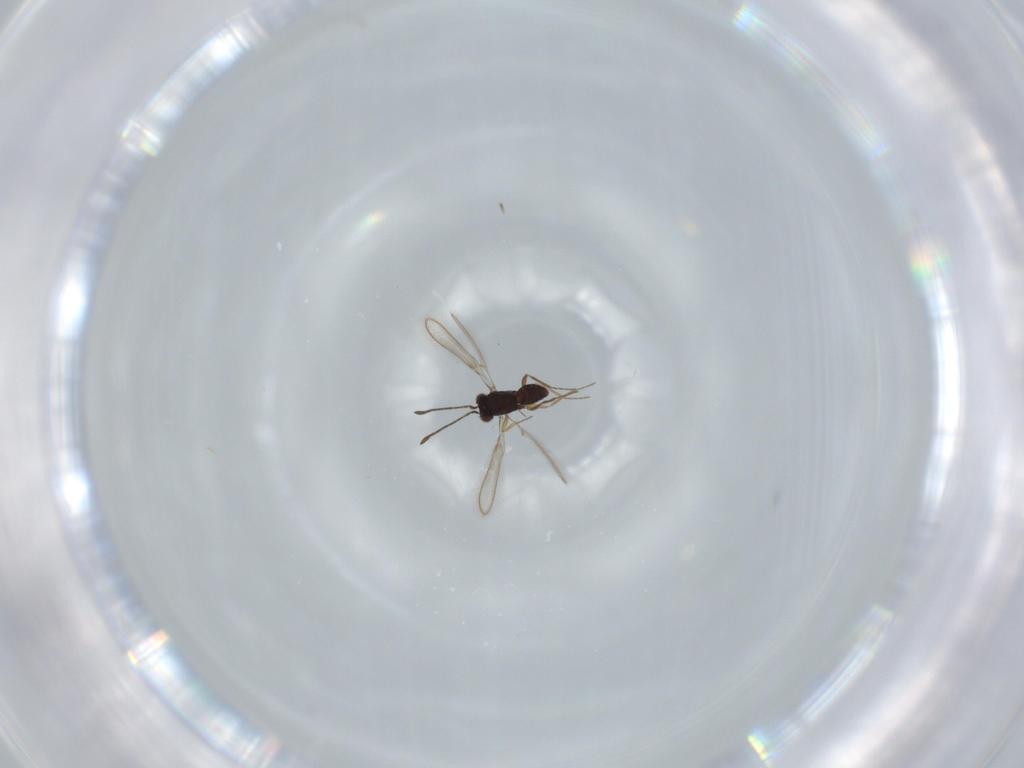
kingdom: Animalia
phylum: Arthropoda
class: Insecta
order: Hymenoptera
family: Mymaridae
